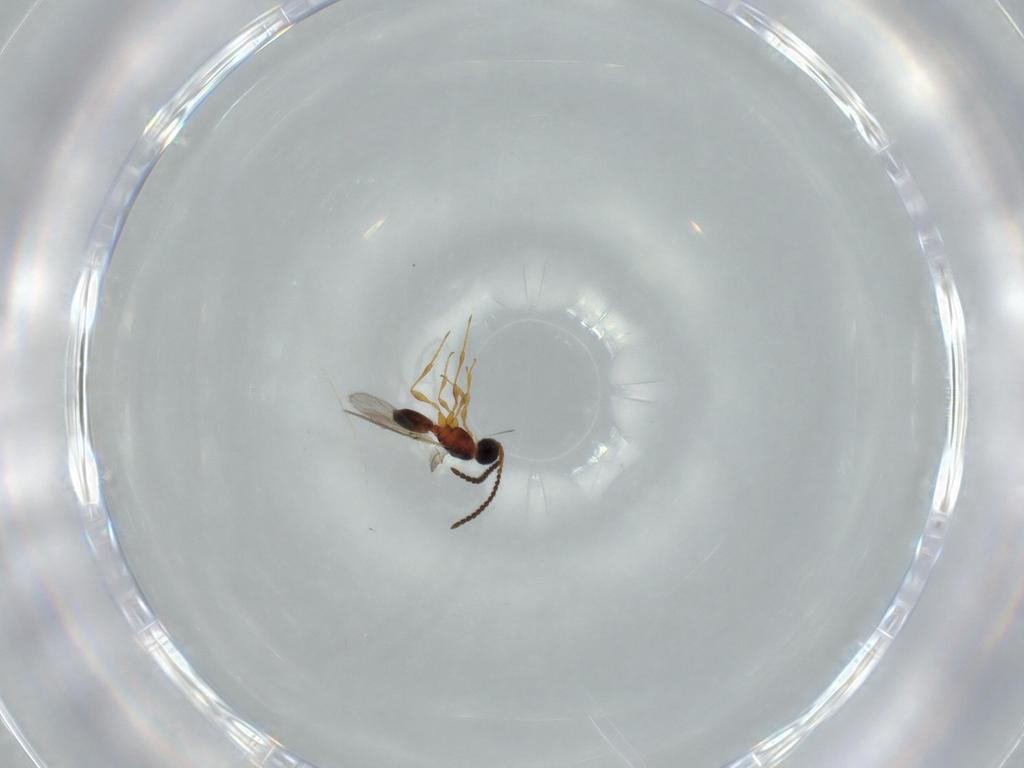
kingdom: Animalia
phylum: Arthropoda
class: Insecta
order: Hymenoptera
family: Diapriidae
